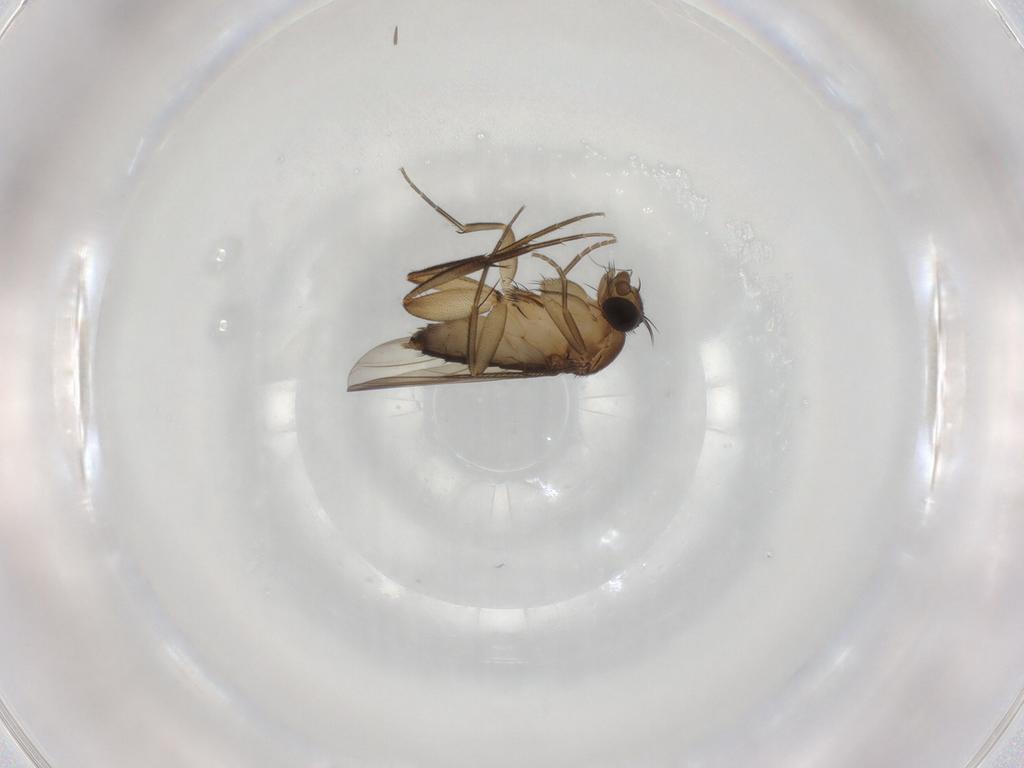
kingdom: Animalia
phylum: Arthropoda
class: Insecta
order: Diptera
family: Phoridae
